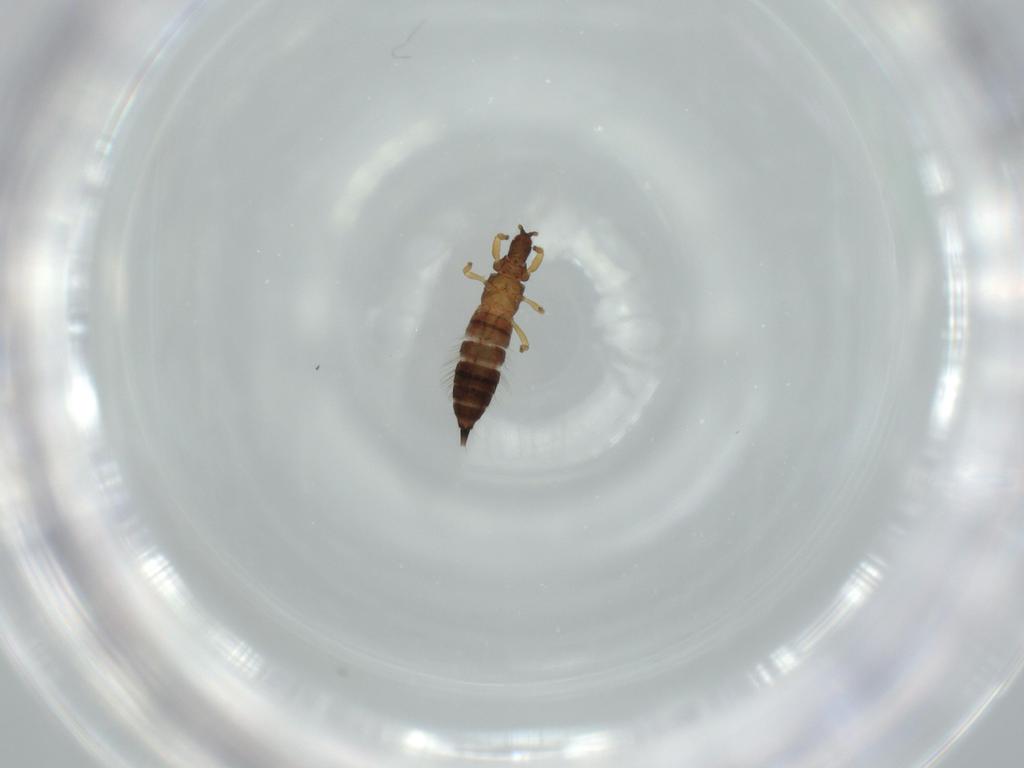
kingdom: Animalia
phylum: Arthropoda
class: Insecta
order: Thysanoptera
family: Phlaeothripidae
